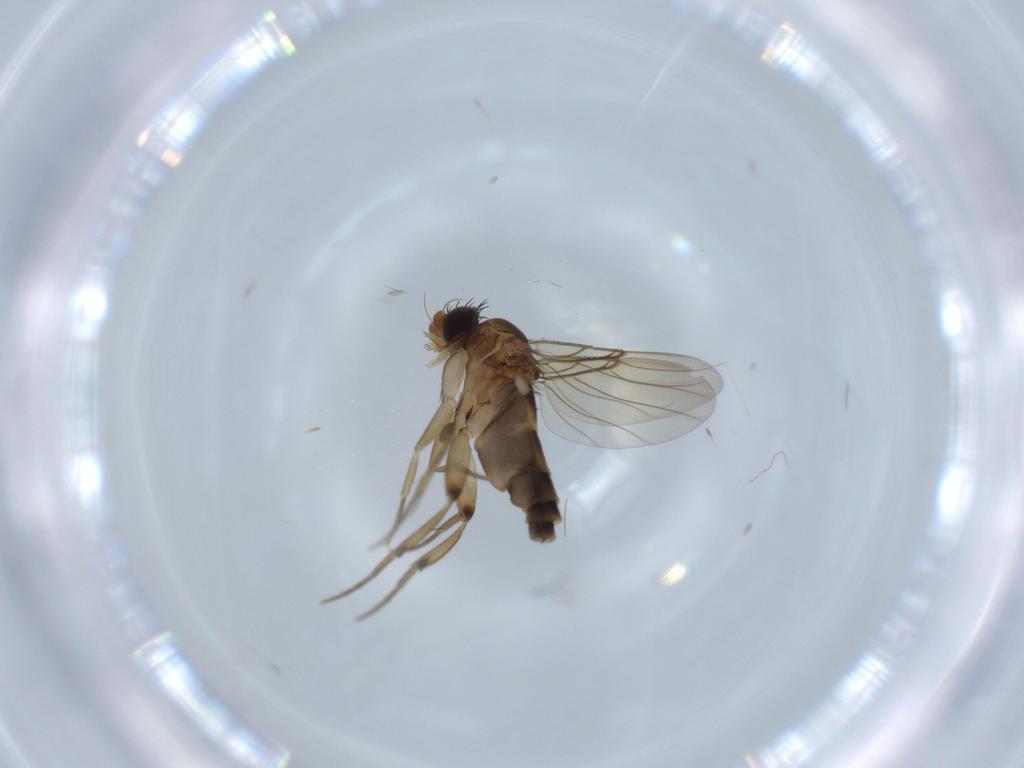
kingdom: Animalia
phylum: Arthropoda
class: Insecta
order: Diptera
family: Phoridae
